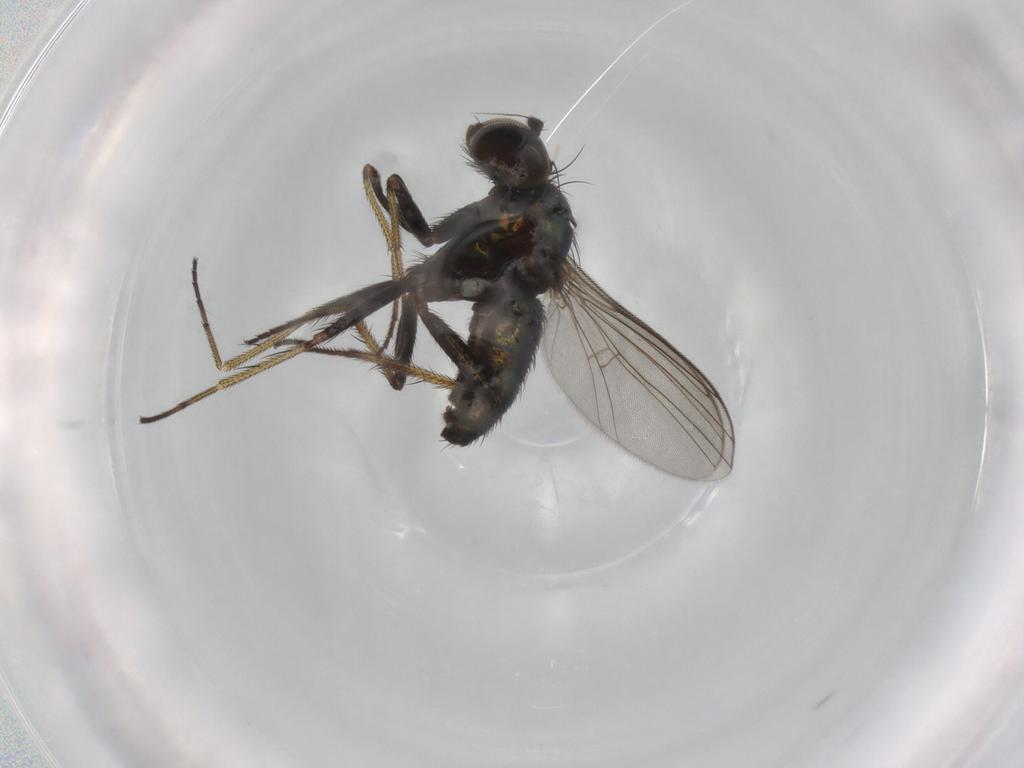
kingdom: Animalia
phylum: Arthropoda
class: Insecta
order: Diptera
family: Dolichopodidae
